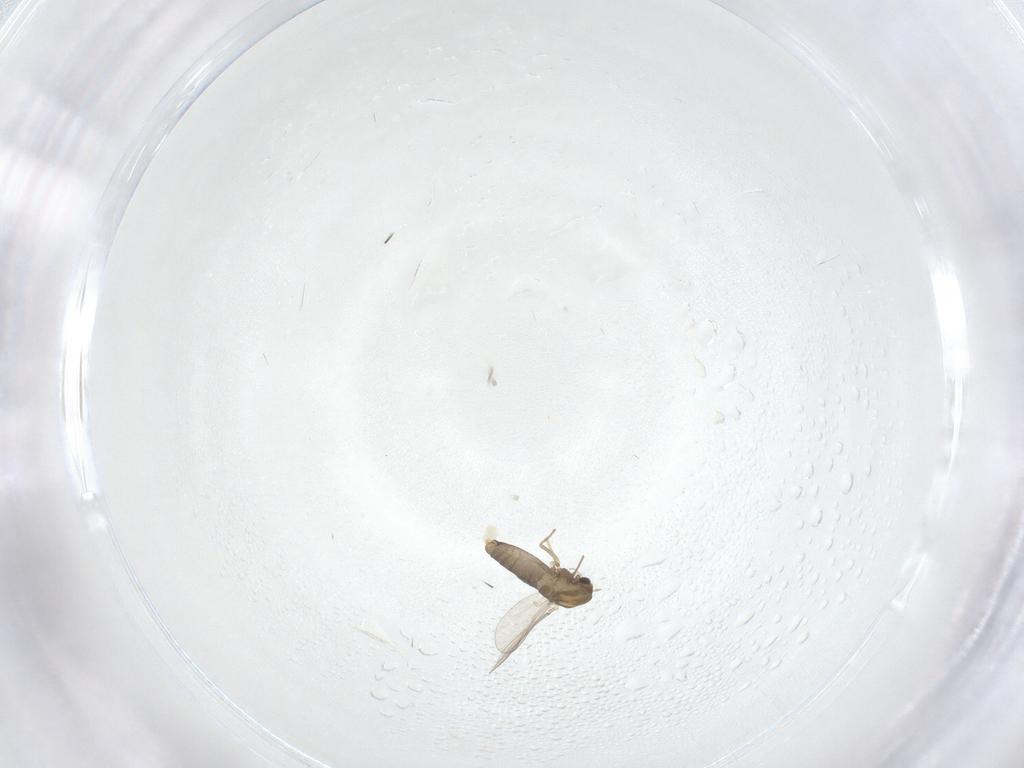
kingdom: Animalia
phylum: Arthropoda
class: Insecta
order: Diptera
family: Chironomidae
